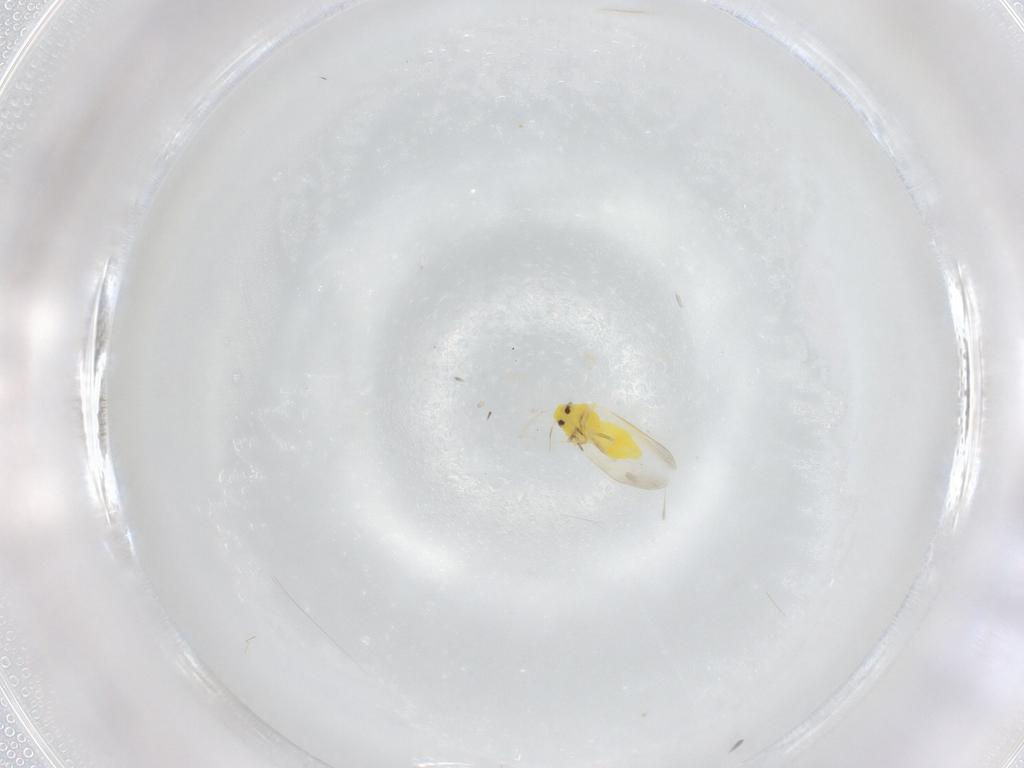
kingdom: Animalia
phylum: Arthropoda
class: Insecta
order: Hemiptera
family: Aleyrodidae
